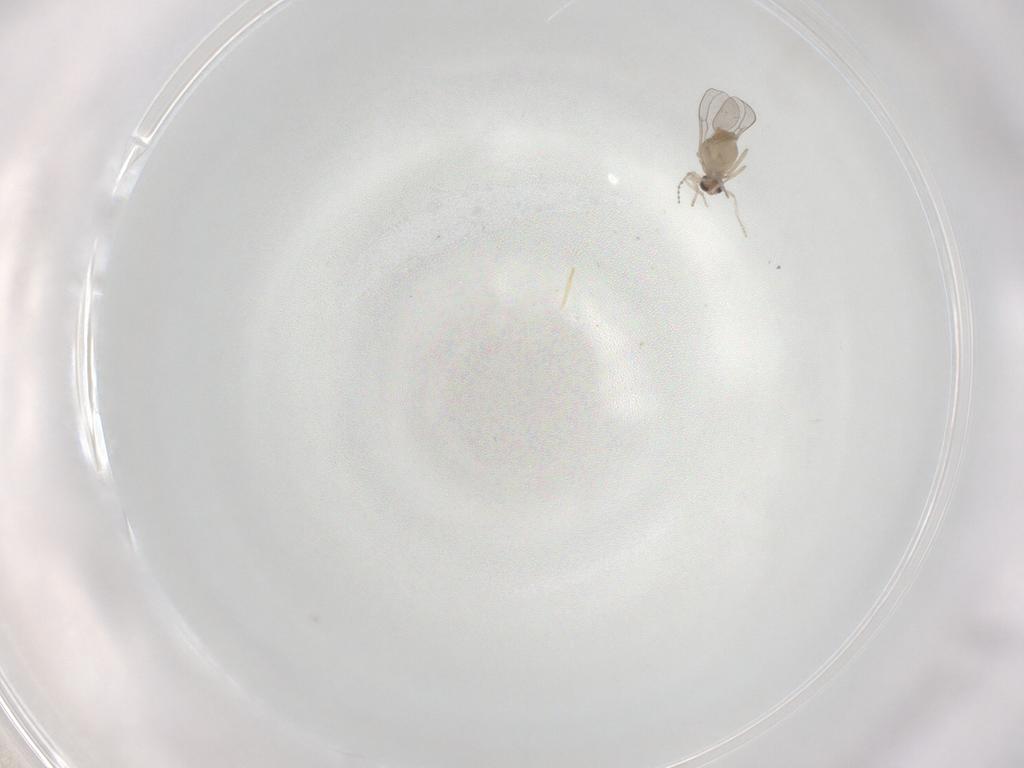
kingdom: Animalia
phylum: Arthropoda
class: Insecta
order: Diptera
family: Cecidomyiidae
